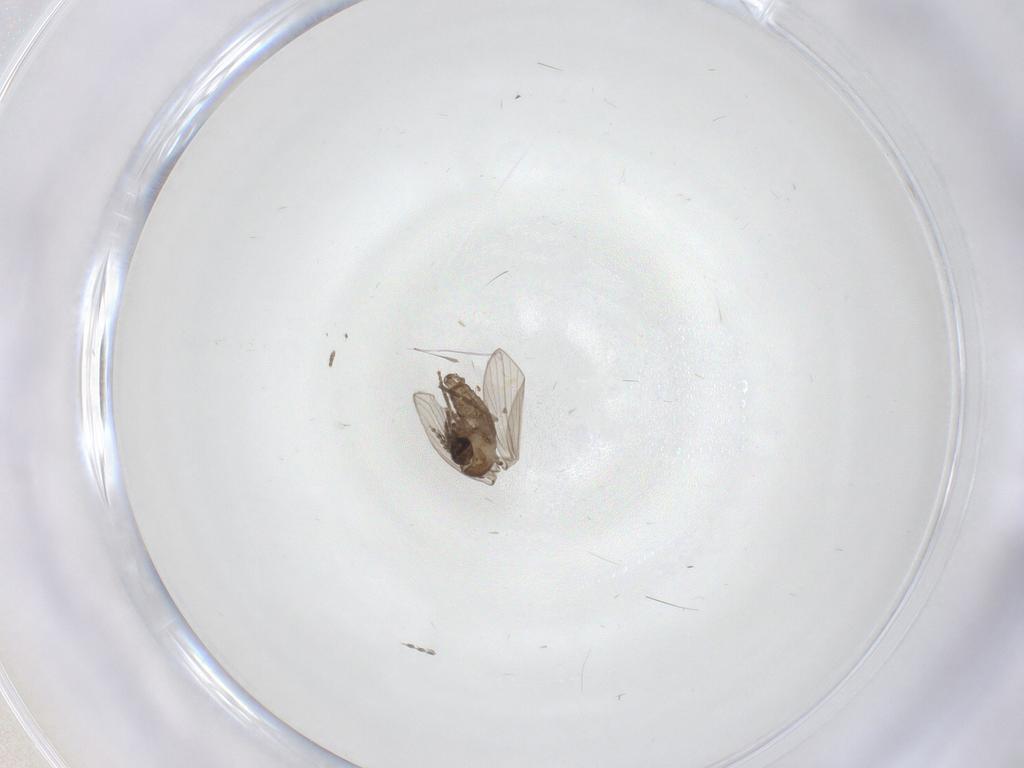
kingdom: Animalia
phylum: Arthropoda
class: Insecta
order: Diptera
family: Psychodidae
